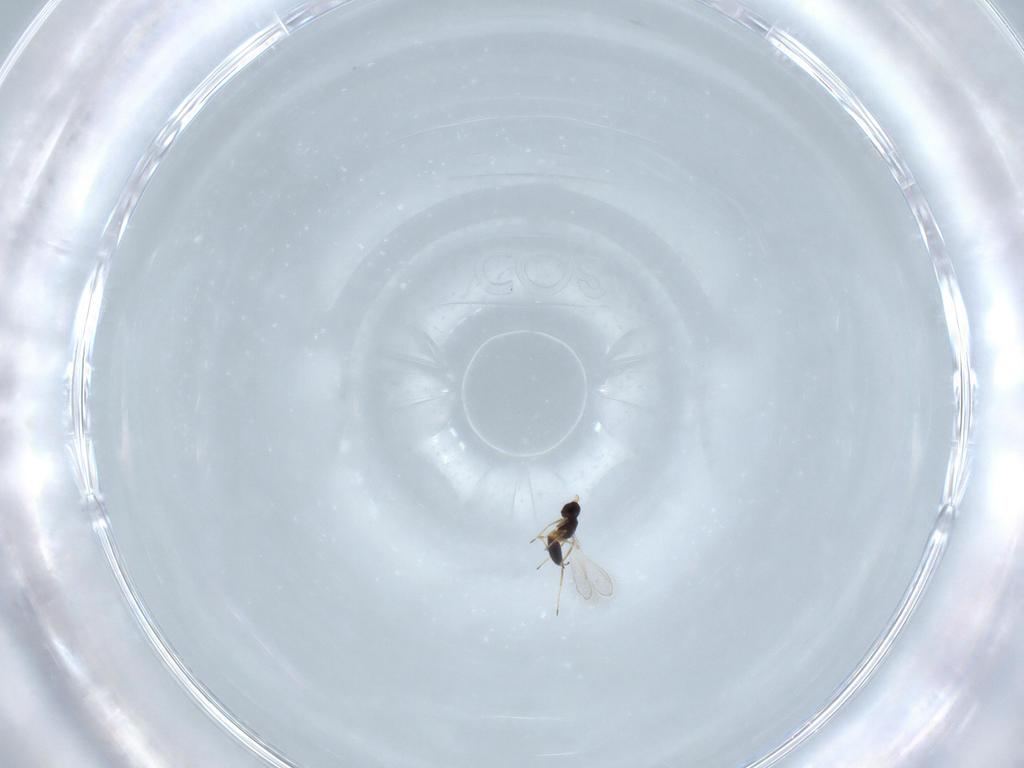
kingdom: Animalia
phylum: Arthropoda
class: Insecta
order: Hymenoptera
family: Mymaridae
